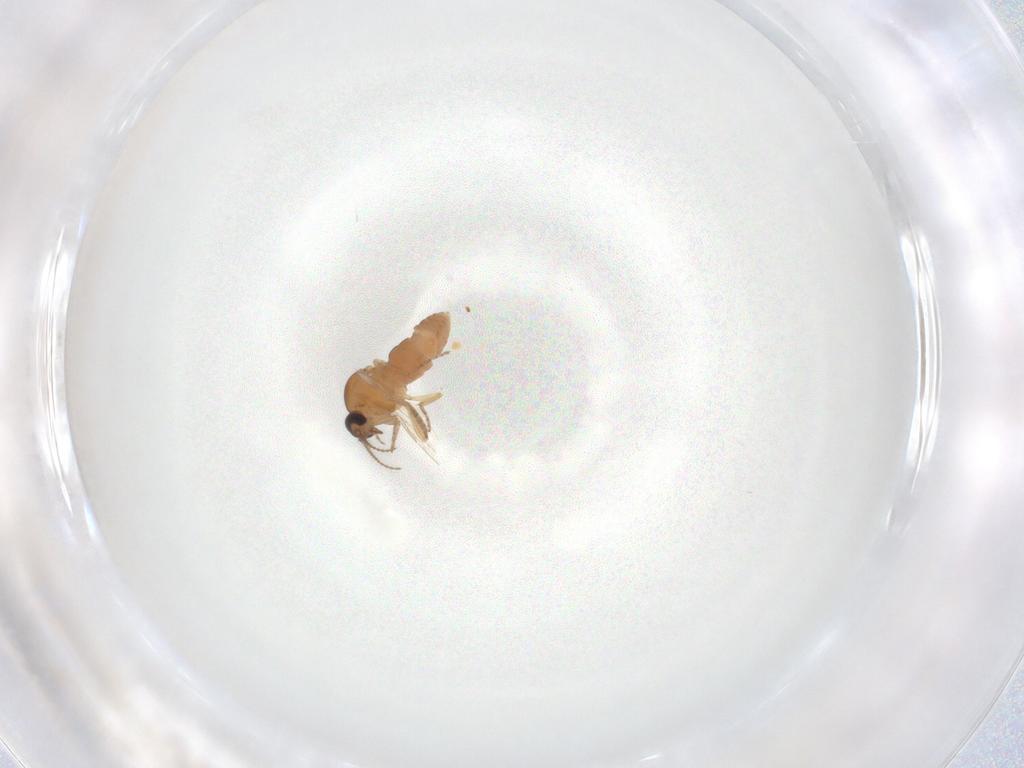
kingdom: Animalia
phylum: Arthropoda
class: Insecta
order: Diptera
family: Ceratopogonidae
